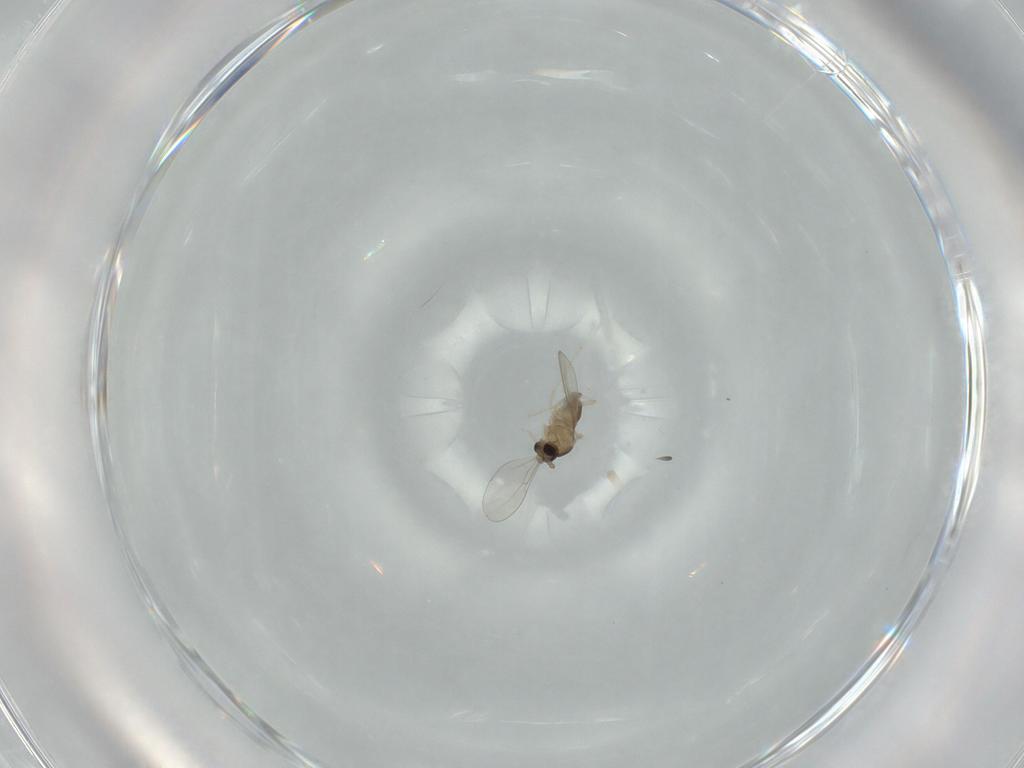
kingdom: Animalia
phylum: Arthropoda
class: Insecta
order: Diptera
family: Cecidomyiidae
